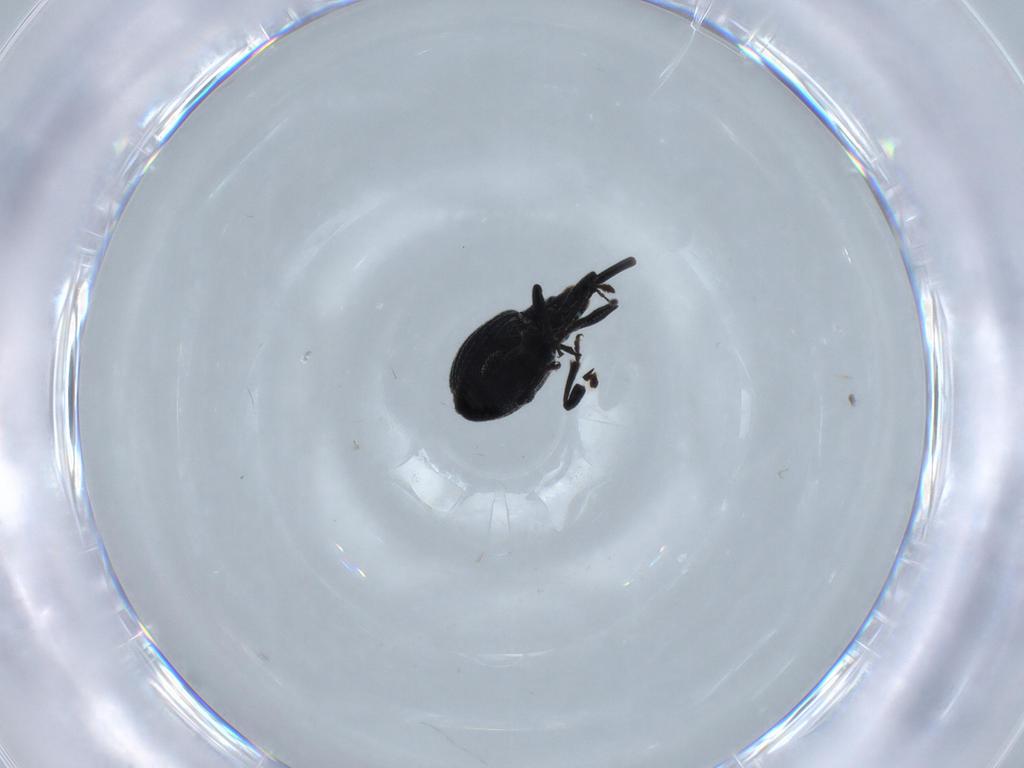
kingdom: Animalia
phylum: Arthropoda
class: Insecta
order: Coleoptera
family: Brentidae
